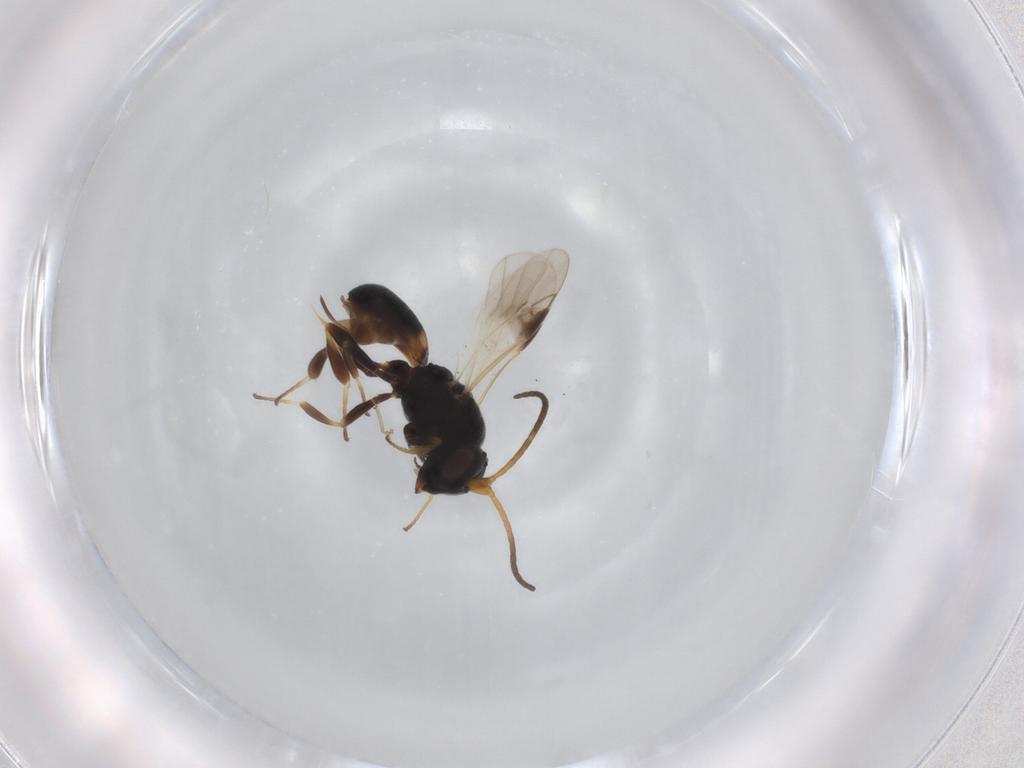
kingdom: Animalia
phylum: Arthropoda
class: Insecta
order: Hymenoptera
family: Braconidae
